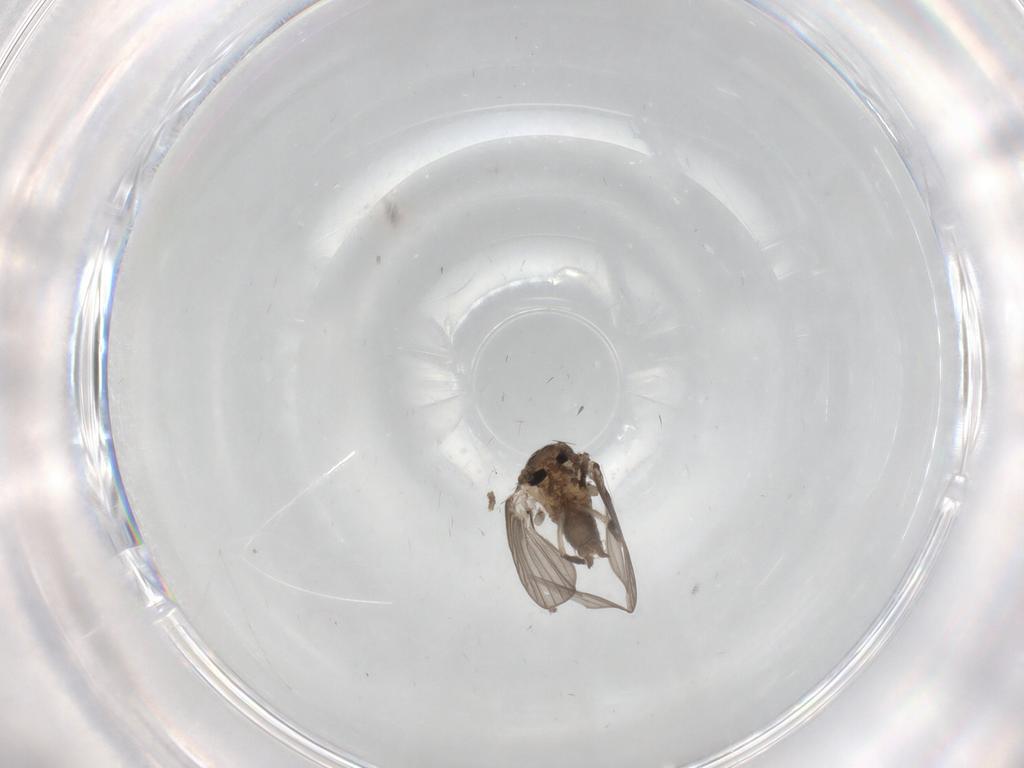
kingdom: Animalia
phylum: Arthropoda
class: Insecta
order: Diptera
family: Psychodidae
